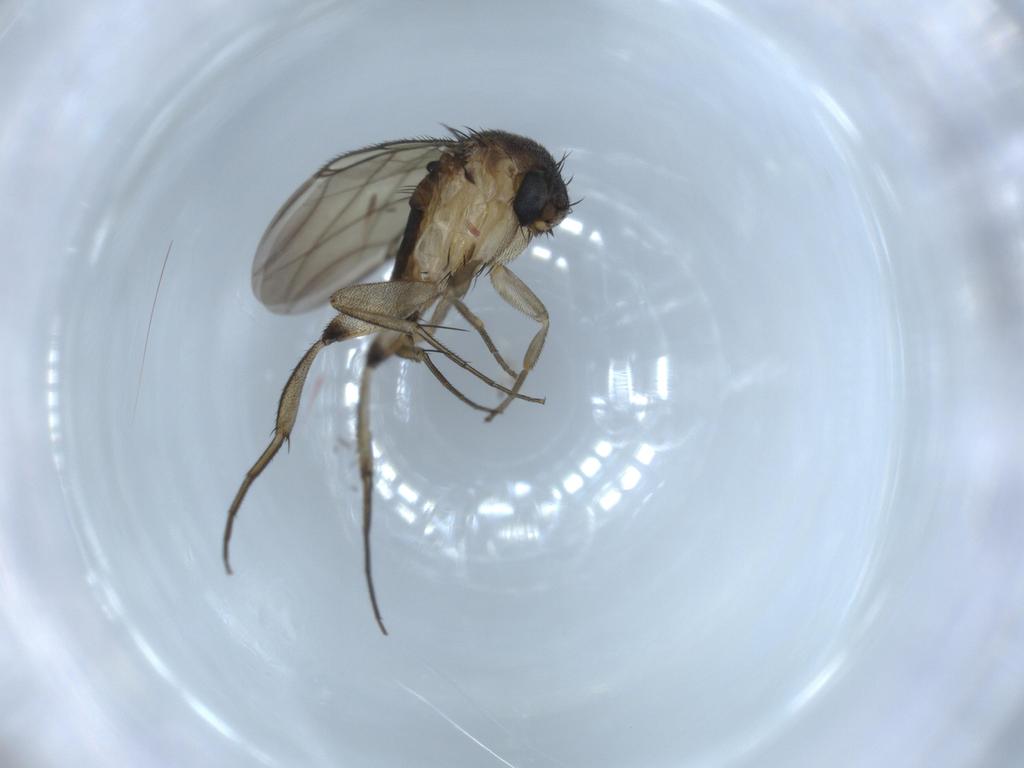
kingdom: Animalia
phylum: Arthropoda
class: Insecta
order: Diptera
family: Phoridae
